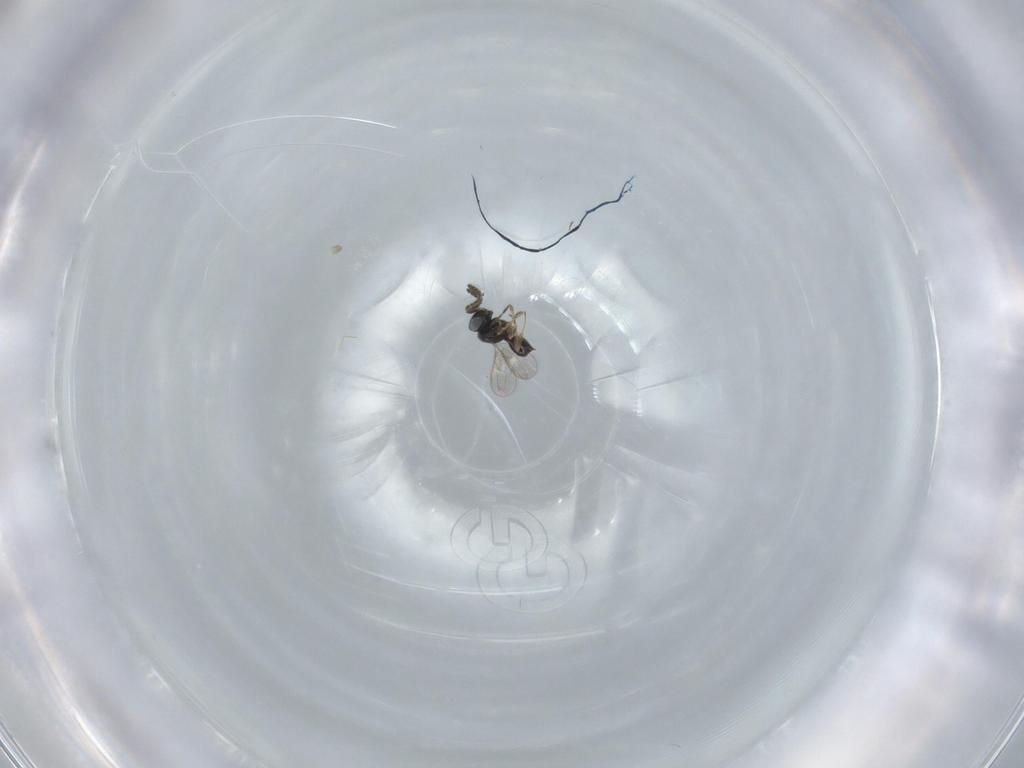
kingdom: Animalia
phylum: Arthropoda
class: Insecta
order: Hymenoptera
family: Scelionidae
